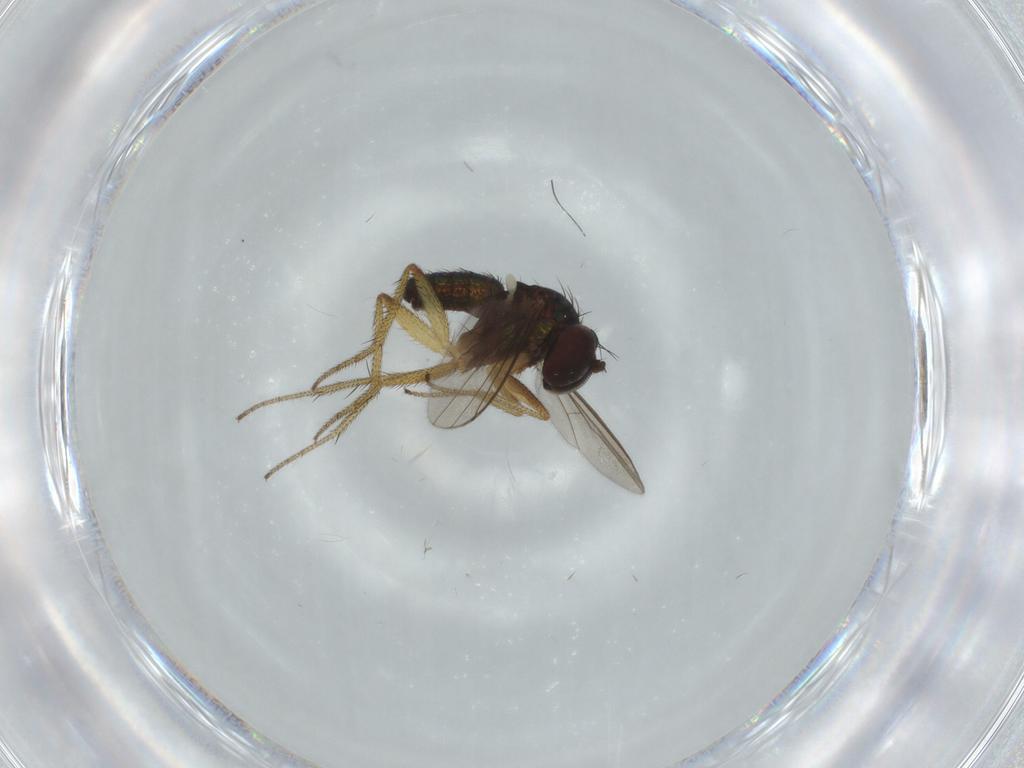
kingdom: Animalia
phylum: Arthropoda
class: Insecta
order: Diptera
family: Dolichopodidae
